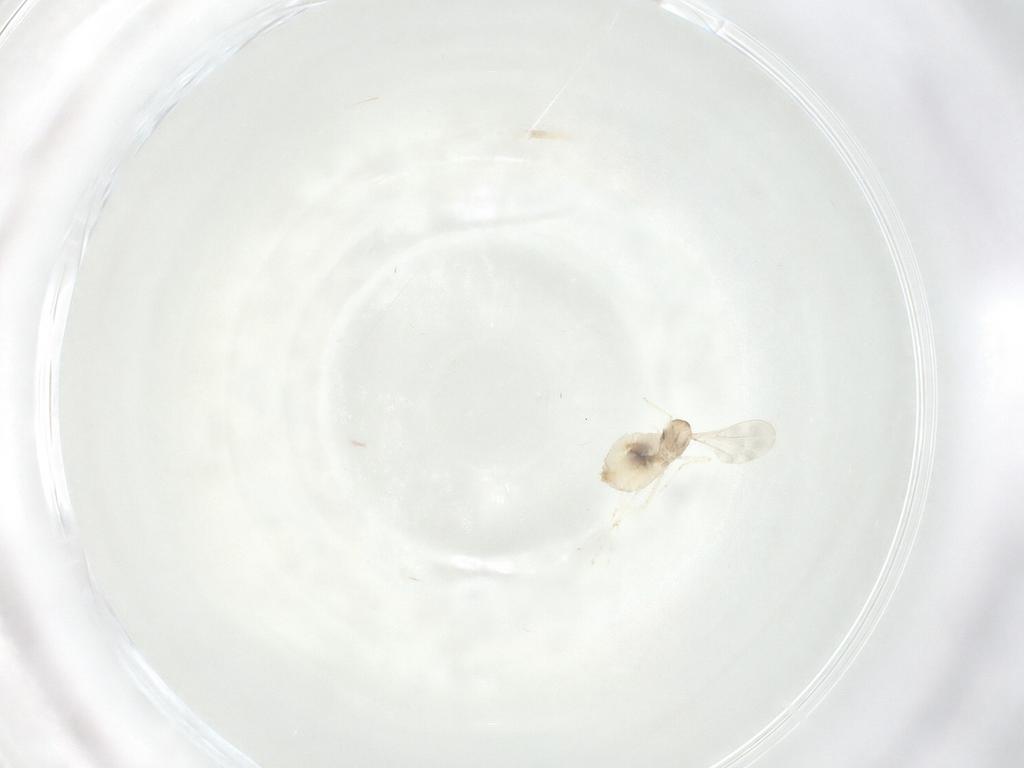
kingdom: Animalia
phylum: Arthropoda
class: Insecta
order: Diptera
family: Cecidomyiidae
